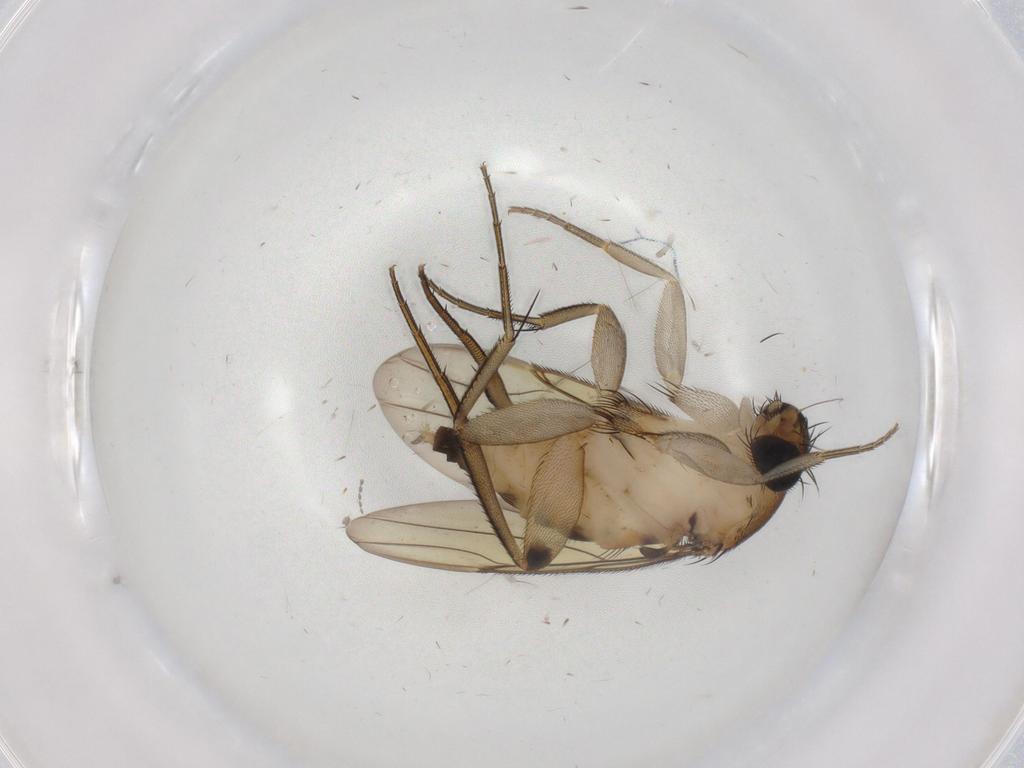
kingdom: Animalia
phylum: Arthropoda
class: Insecta
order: Diptera
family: Phoridae
